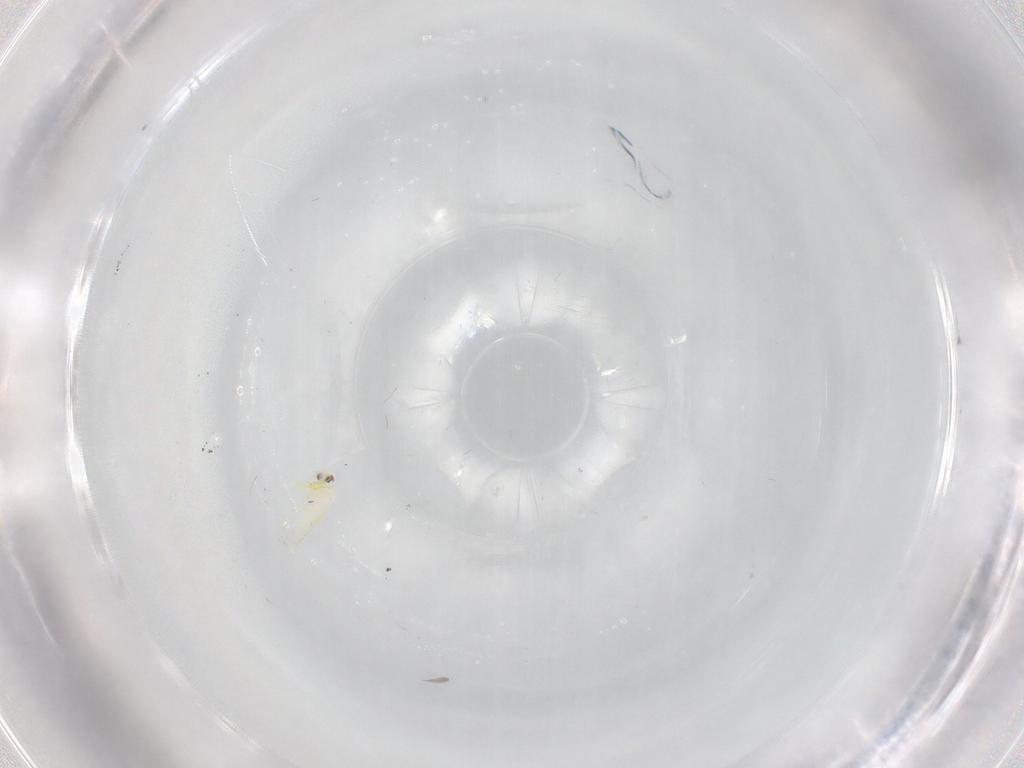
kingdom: Animalia
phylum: Arthropoda
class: Insecta
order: Hemiptera
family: Aleyrodidae
